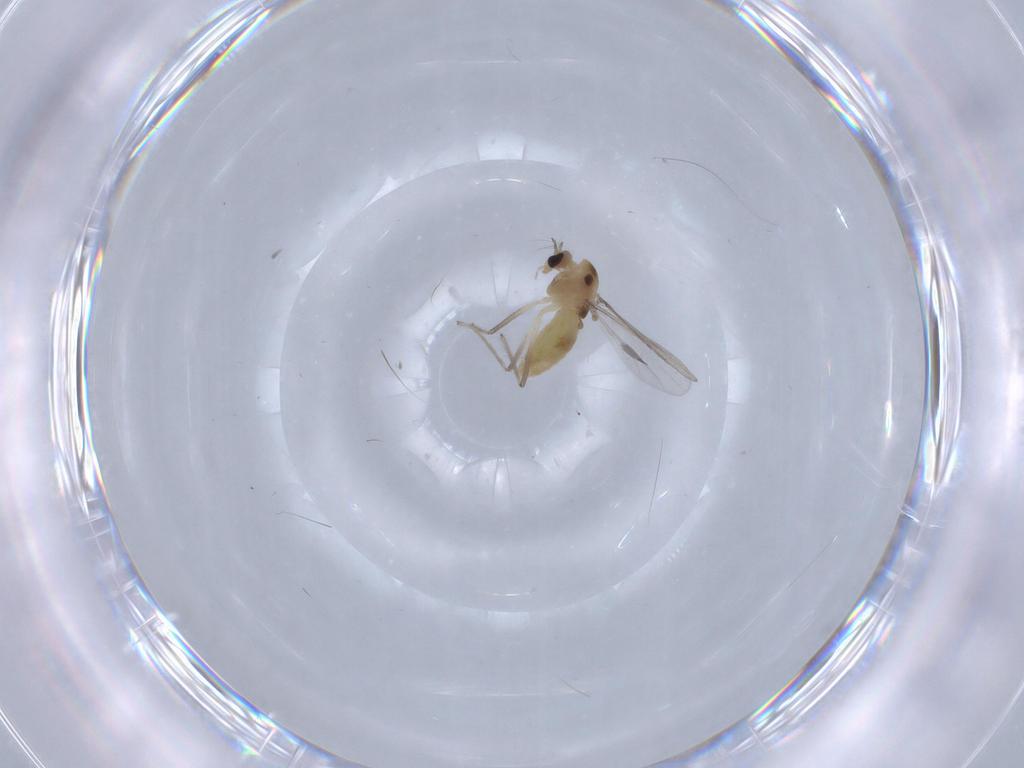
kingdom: Animalia
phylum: Arthropoda
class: Insecta
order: Diptera
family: Chironomidae
